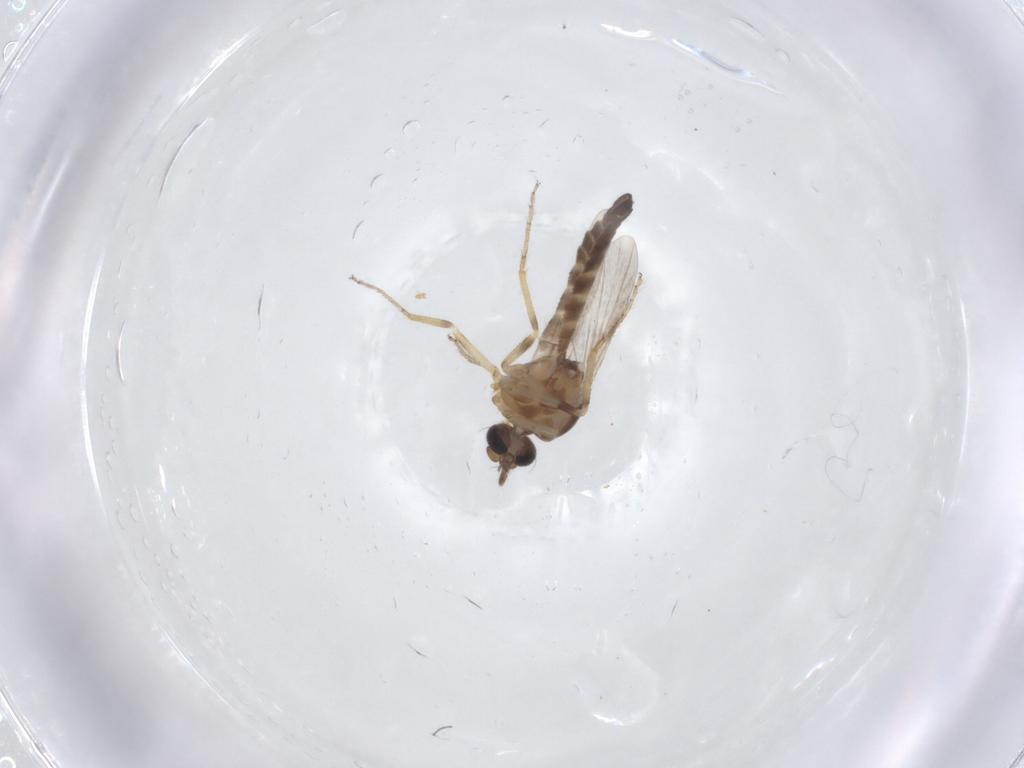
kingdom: Animalia
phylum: Arthropoda
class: Insecta
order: Diptera
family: Ceratopogonidae
